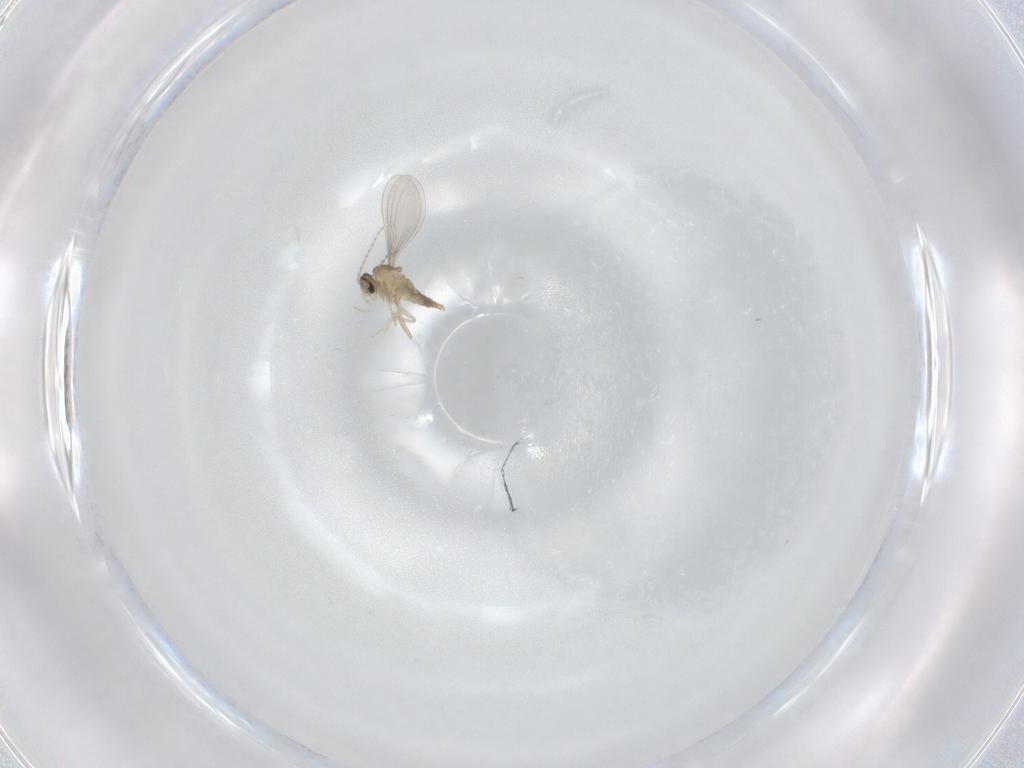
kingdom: Animalia
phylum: Arthropoda
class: Insecta
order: Diptera
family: Cecidomyiidae
